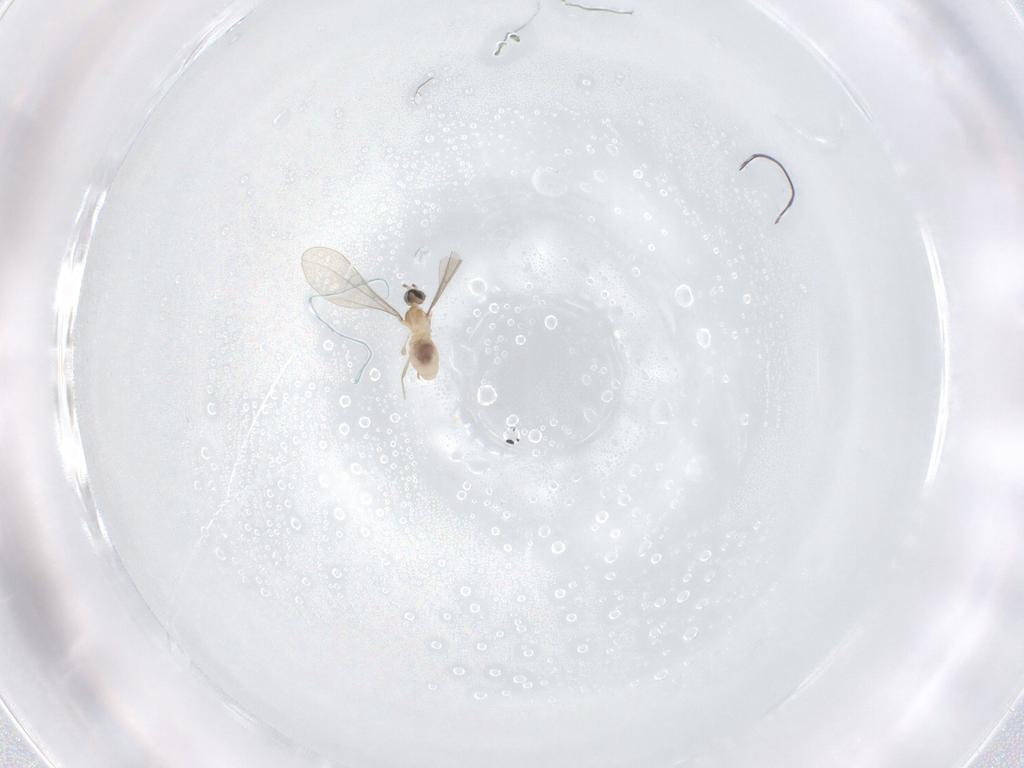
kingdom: Animalia
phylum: Arthropoda
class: Insecta
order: Diptera
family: Cecidomyiidae
